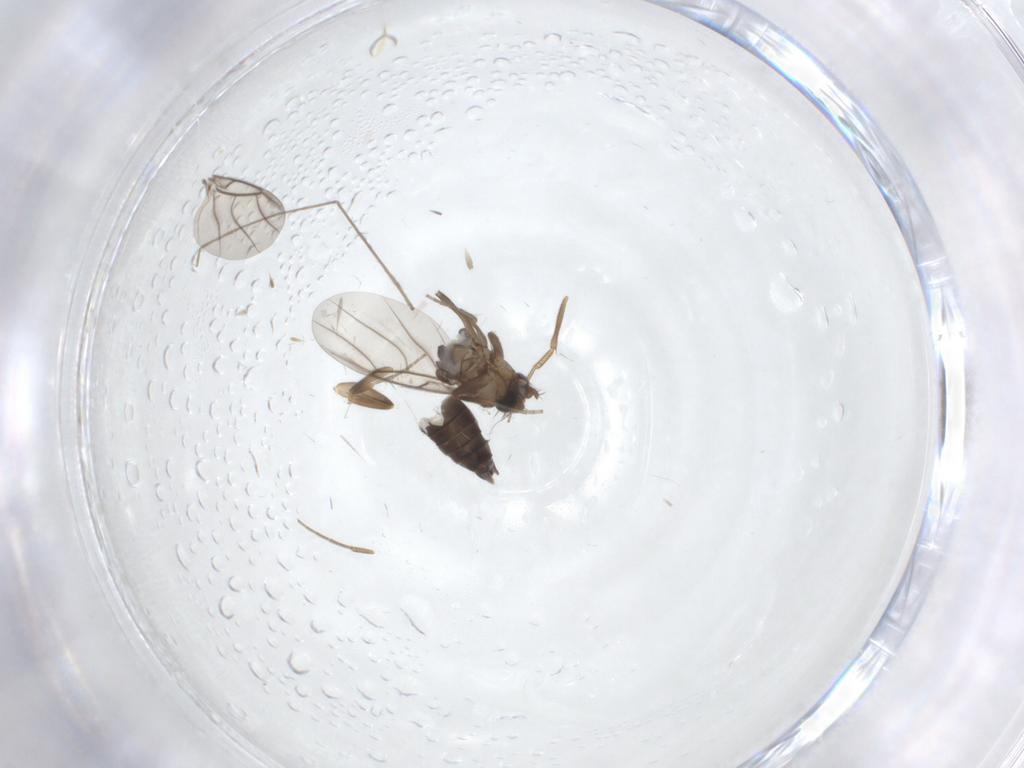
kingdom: Animalia
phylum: Arthropoda
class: Insecta
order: Diptera
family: Phoridae
